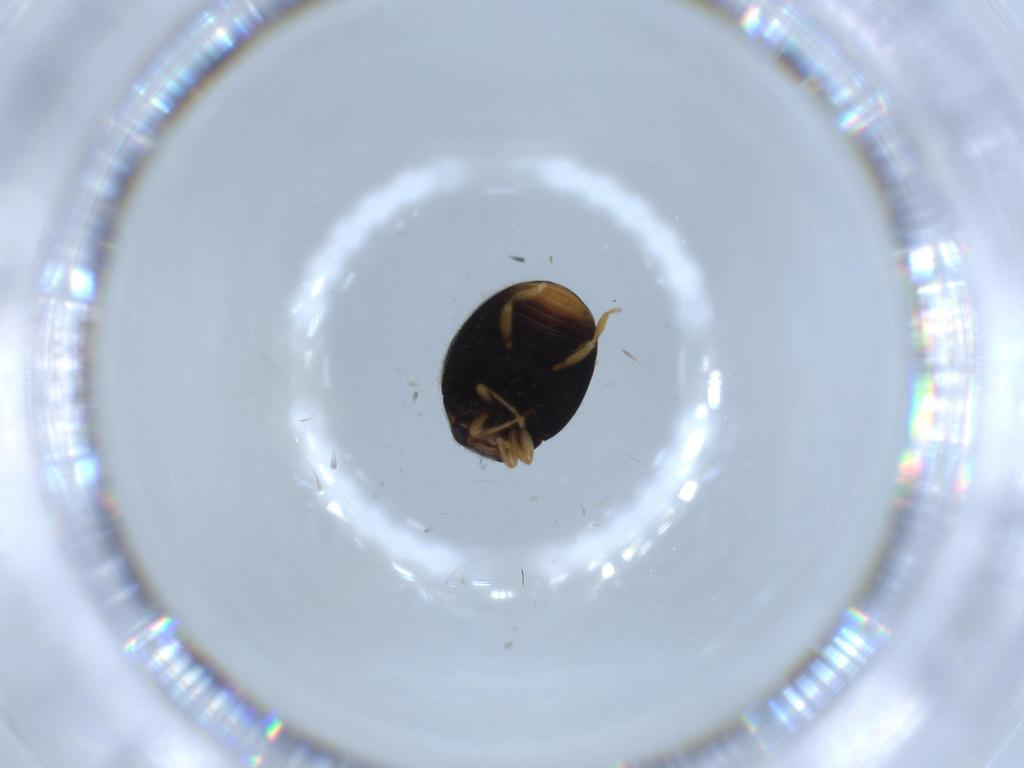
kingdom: Animalia
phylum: Arthropoda
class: Insecta
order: Coleoptera
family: Coccinellidae
